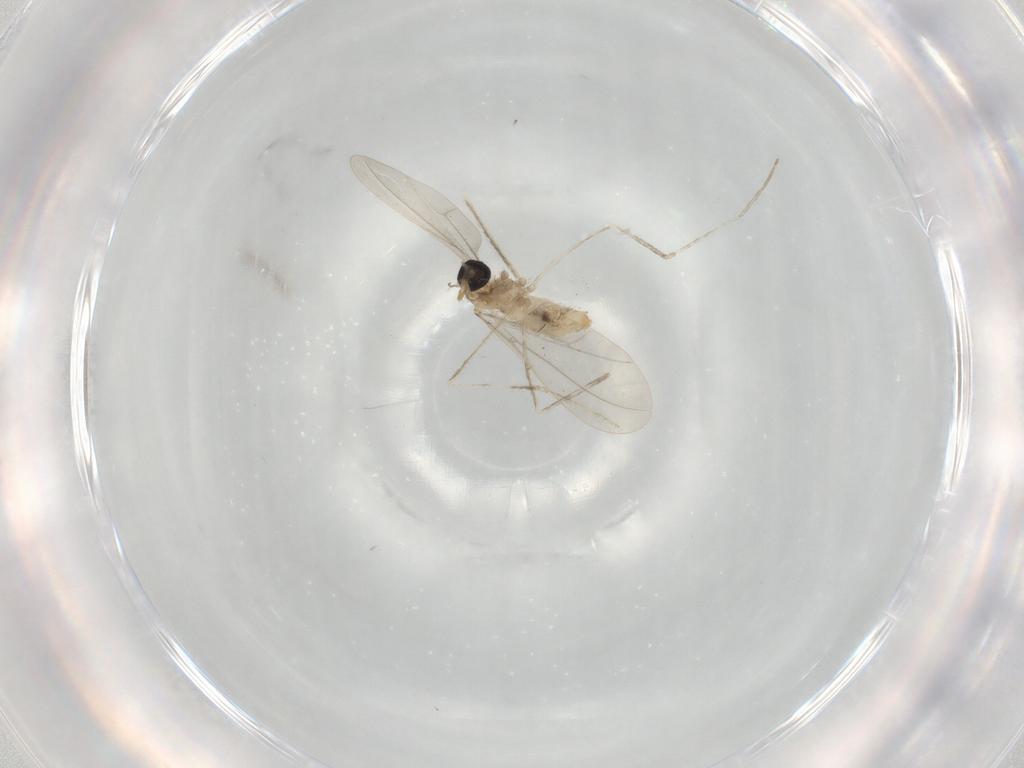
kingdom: Animalia
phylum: Arthropoda
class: Insecta
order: Diptera
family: Cecidomyiidae
